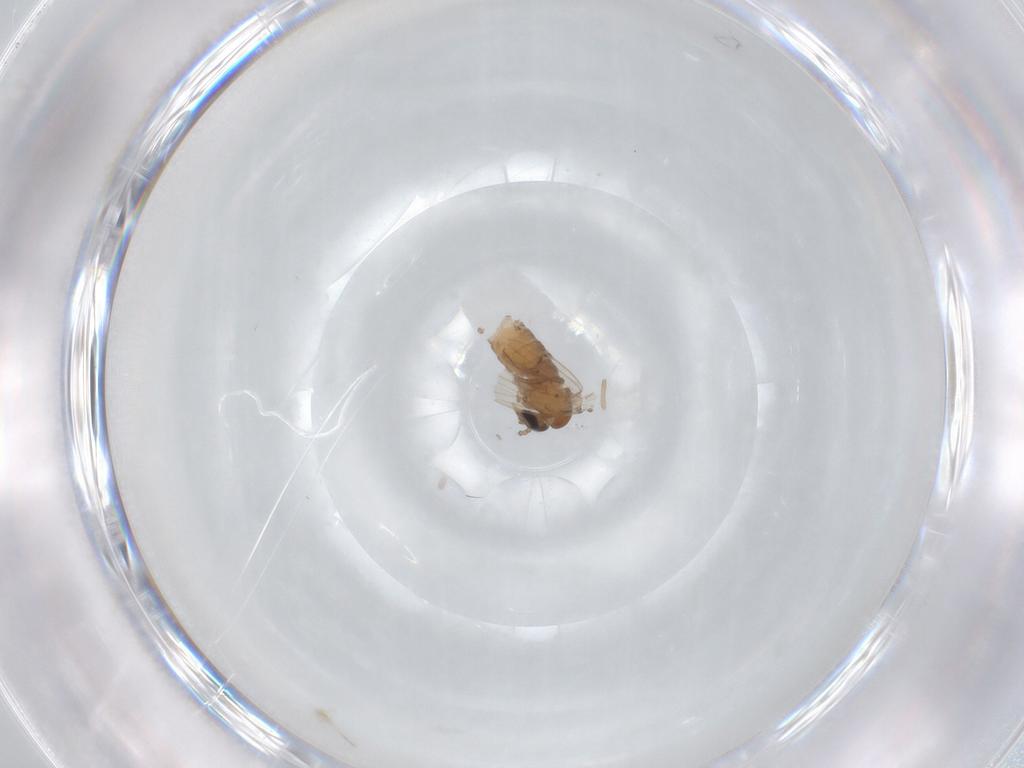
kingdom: Animalia
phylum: Arthropoda
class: Insecta
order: Diptera
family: Psychodidae
